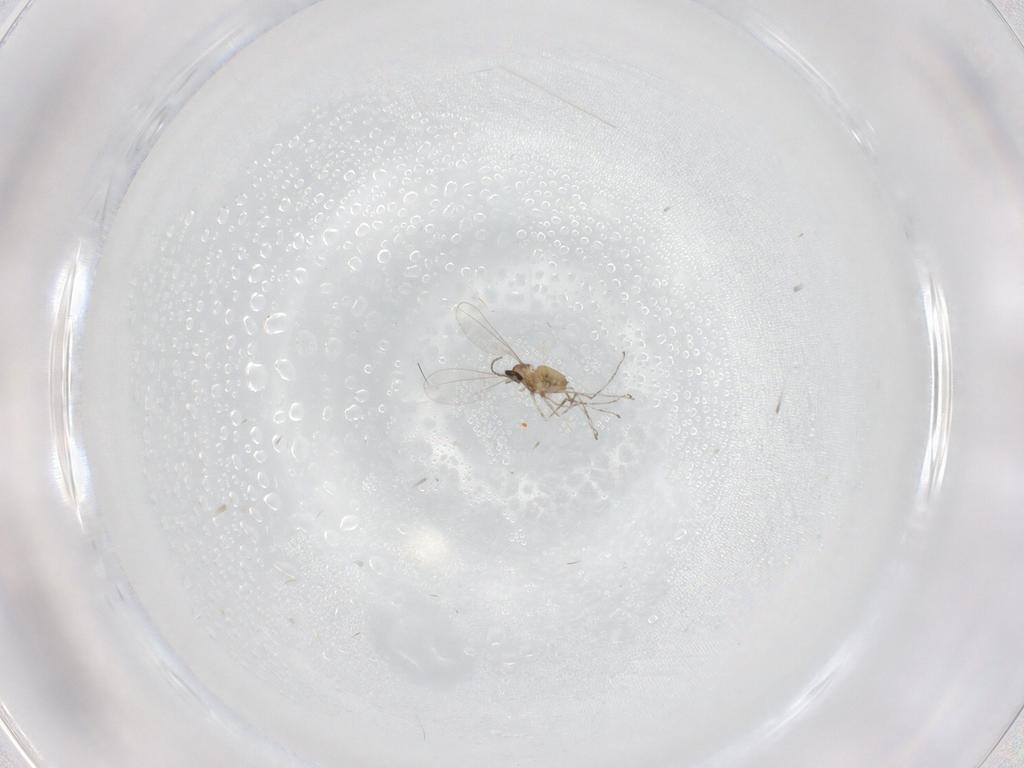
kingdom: Animalia
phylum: Arthropoda
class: Insecta
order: Diptera
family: Cecidomyiidae
